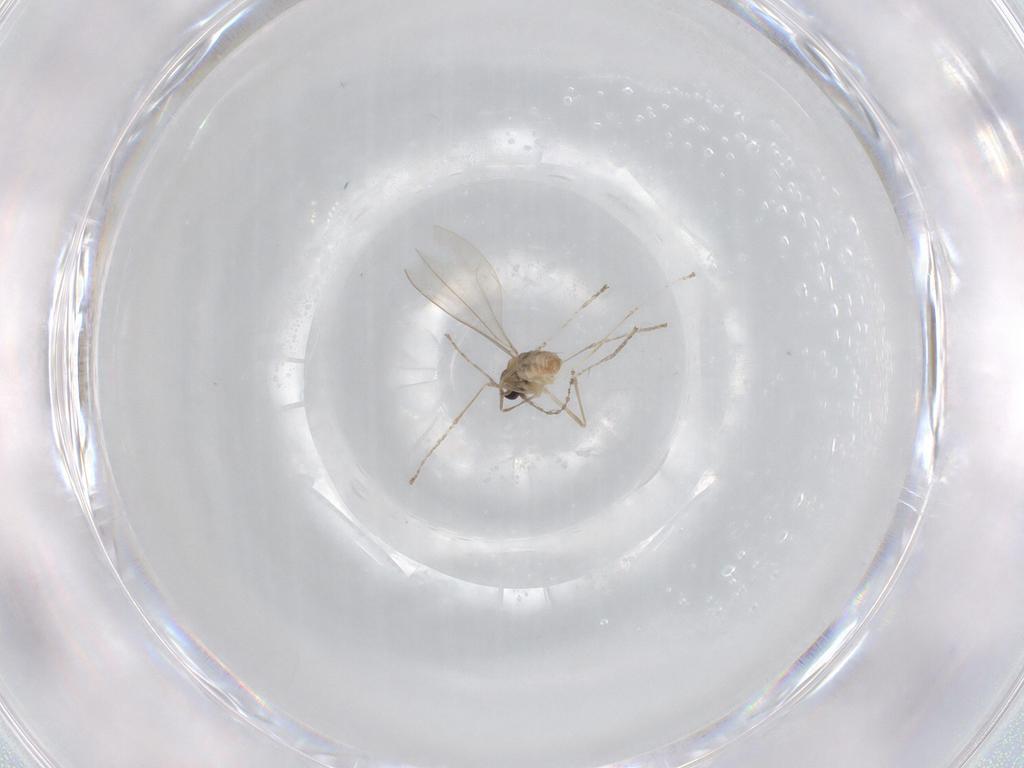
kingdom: Animalia
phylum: Arthropoda
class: Insecta
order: Diptera
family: Cecidomyiidae
